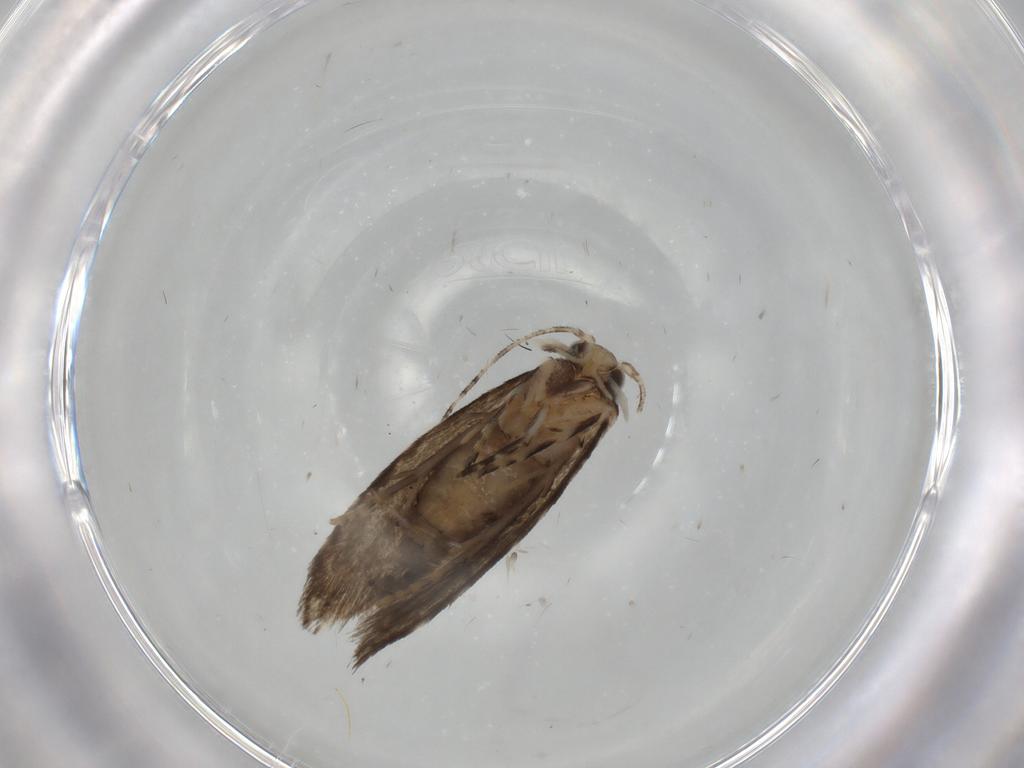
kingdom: Animalia
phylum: Arthropoda
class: Insecta
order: Lepidoptera
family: Tineidae
